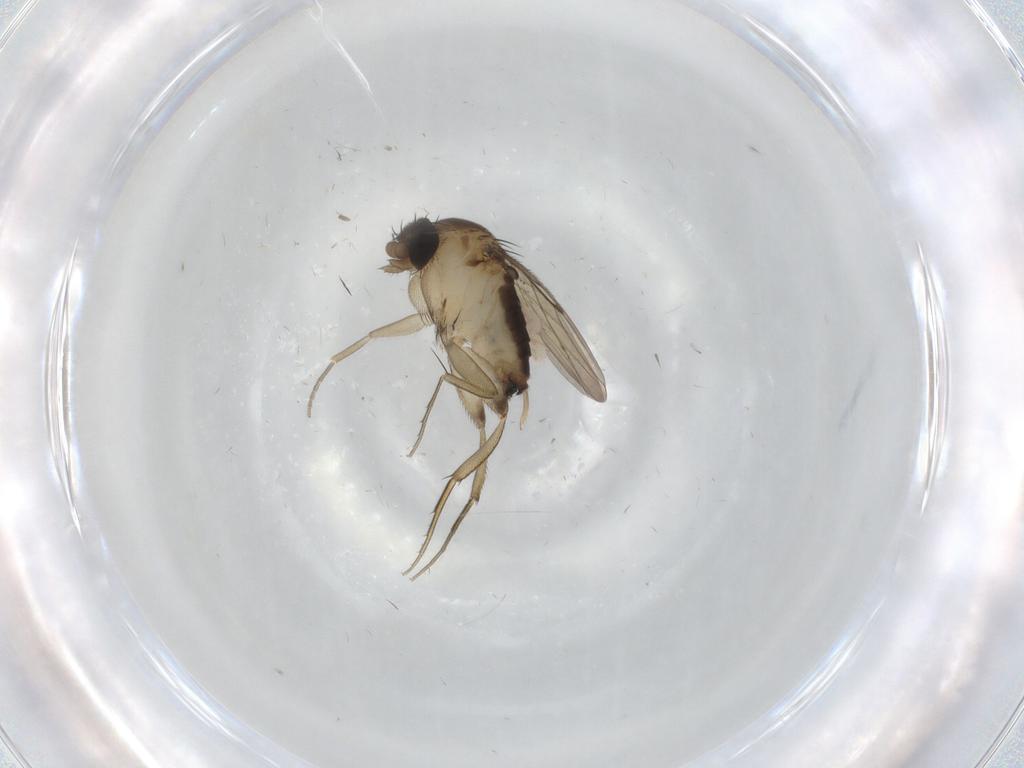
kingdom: Animalia
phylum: Arthropoda
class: Insecta
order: Diptera
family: Phoridae
